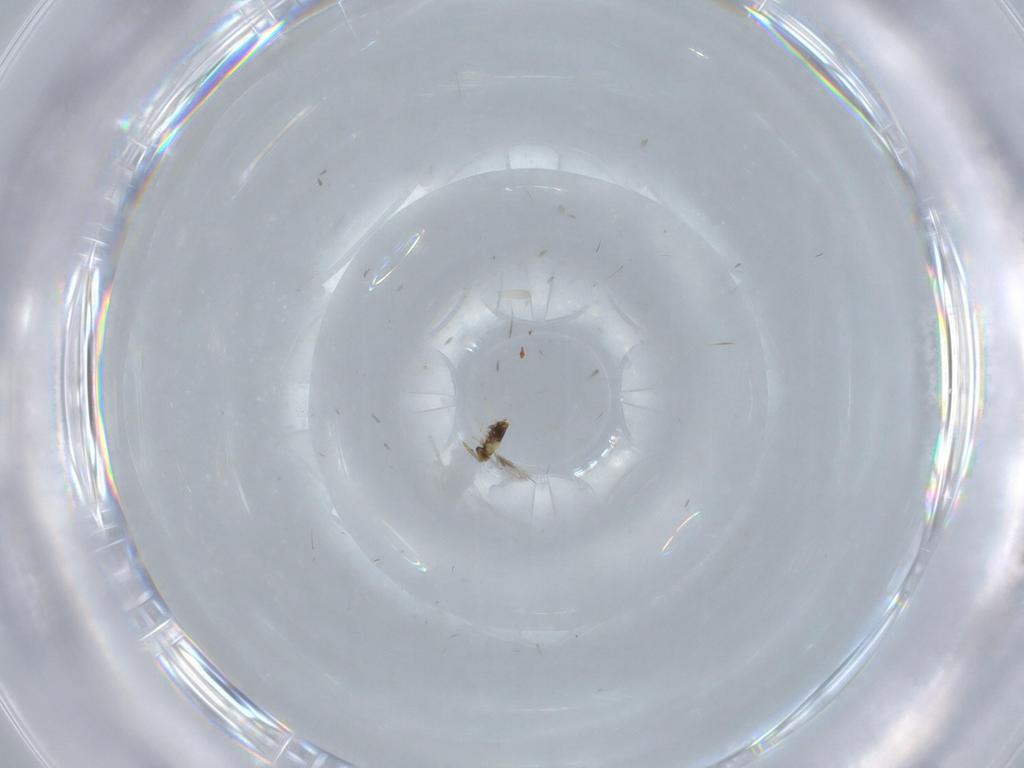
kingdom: Animalia
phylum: Arthropoda
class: Insecta
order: Hymenoptera
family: Aphelinidae
